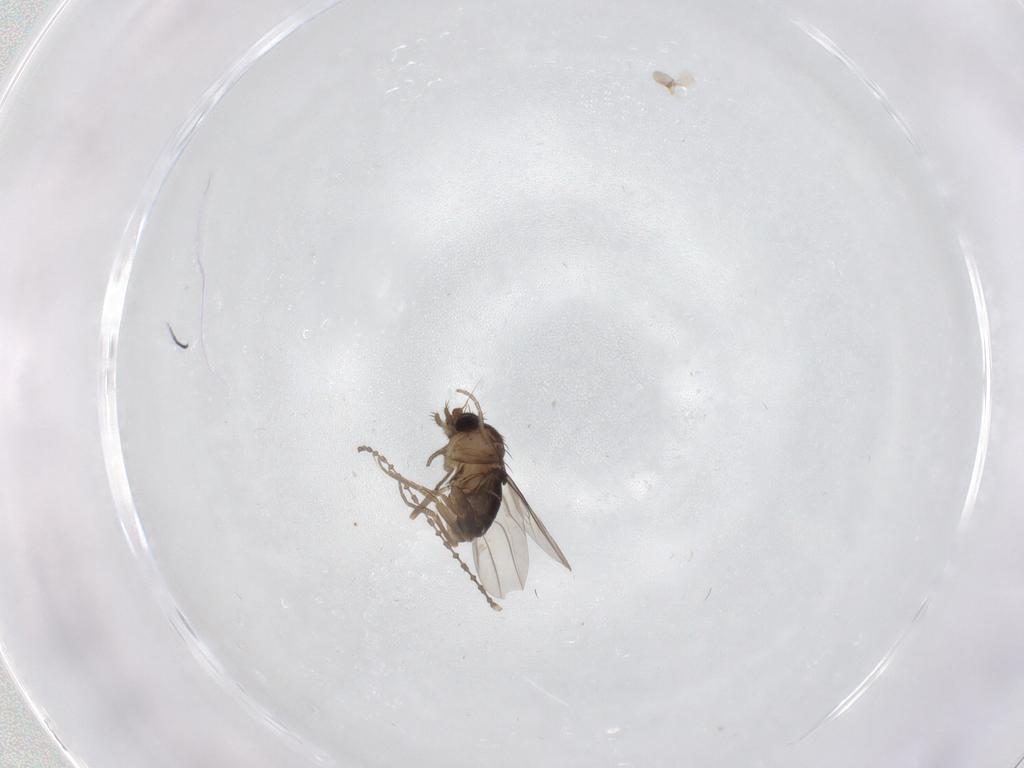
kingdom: Animalia
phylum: Arthropoda
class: Insecta
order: Diptera
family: Phoridae
